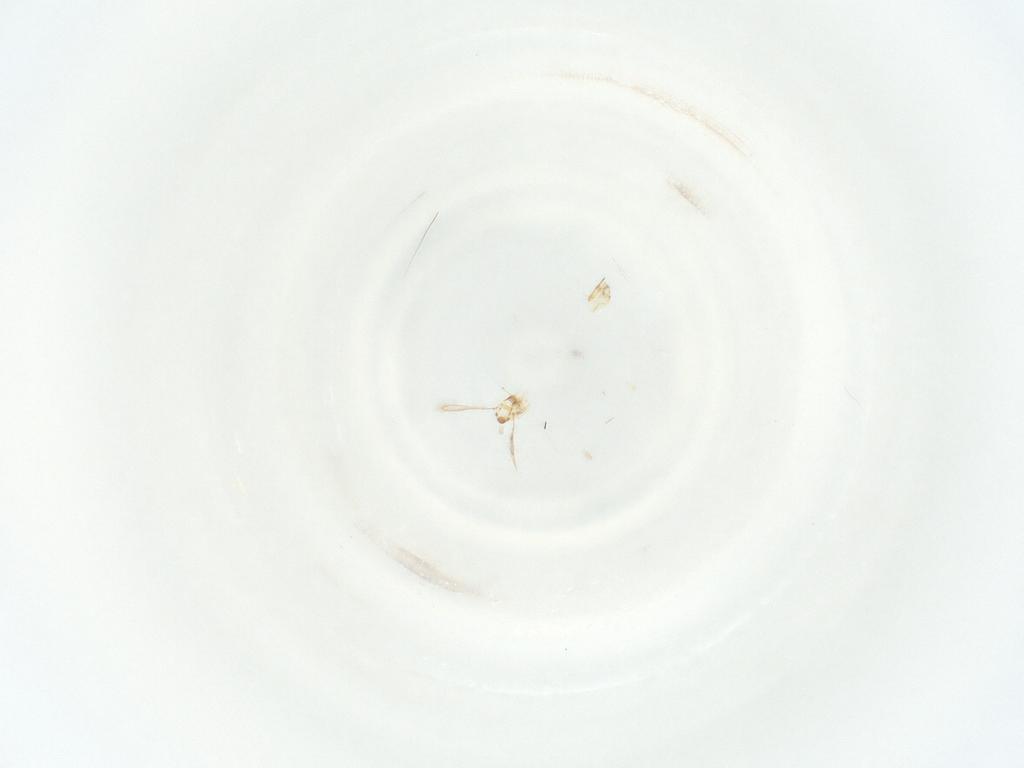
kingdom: Animalia
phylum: Arthropoda
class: Insecta
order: Hymenoptera
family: Mymaridae
